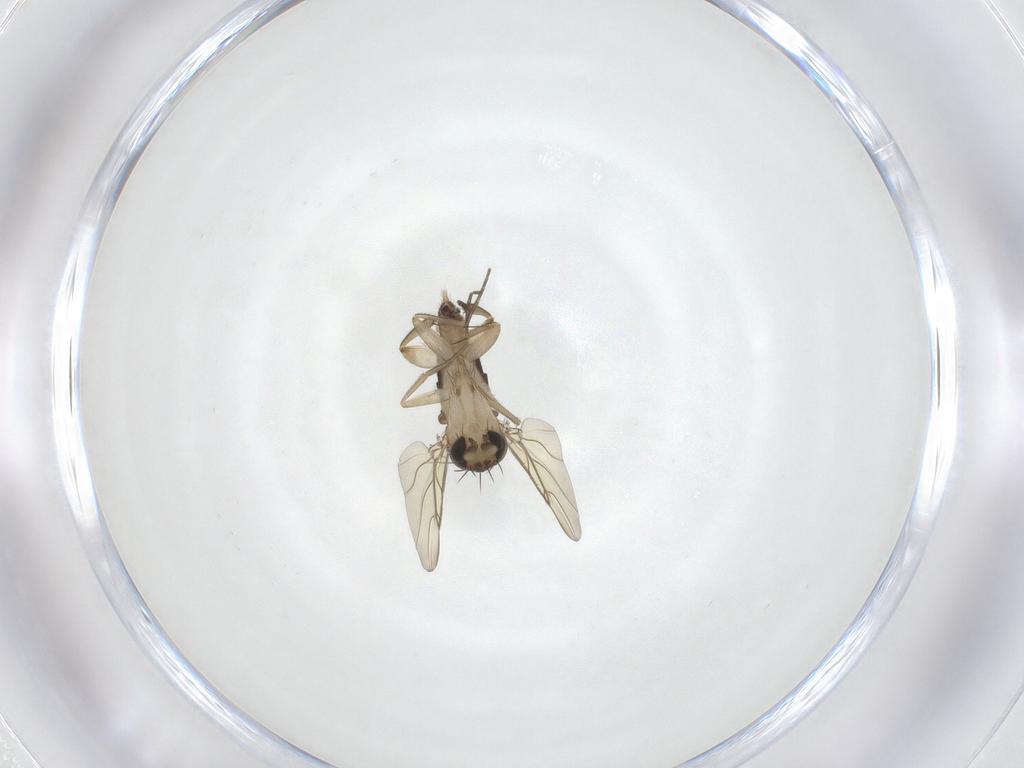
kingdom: Animalia
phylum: Arthropoda
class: Insecta
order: Diptera
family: Phoridae
